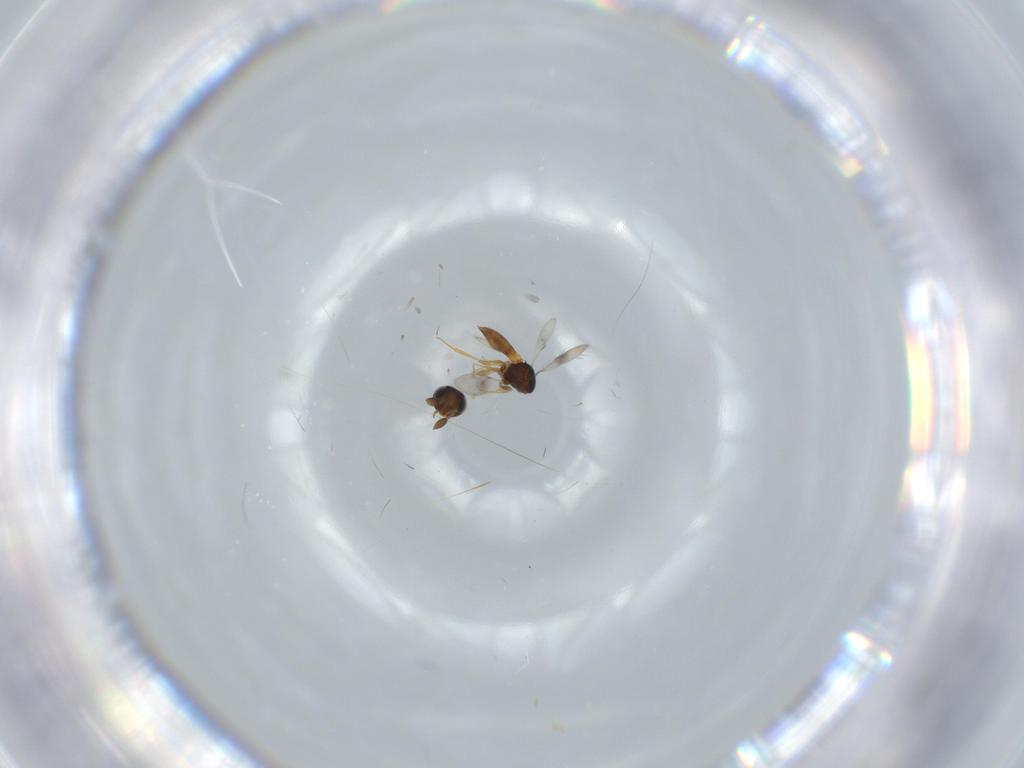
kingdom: Animalia
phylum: Arthropoda
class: Insecta
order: Hymenoptera
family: Scelionidae
